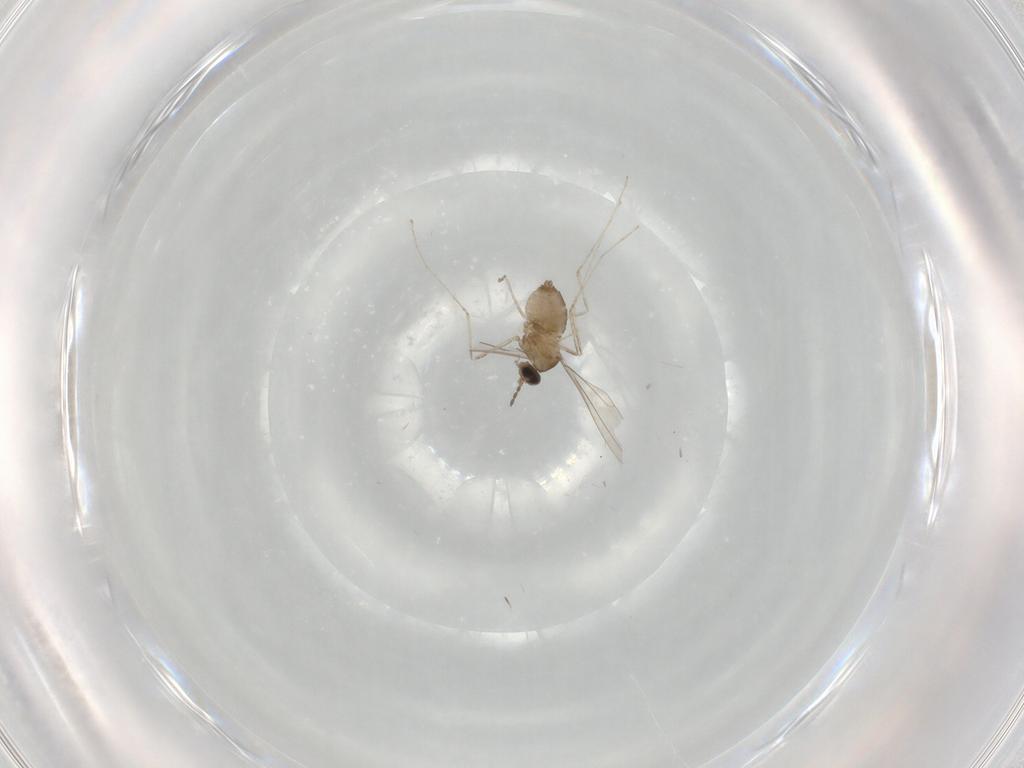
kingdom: Animalia
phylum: Arthropoda
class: Insecta
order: Diptera
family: Cecidomyiidae
